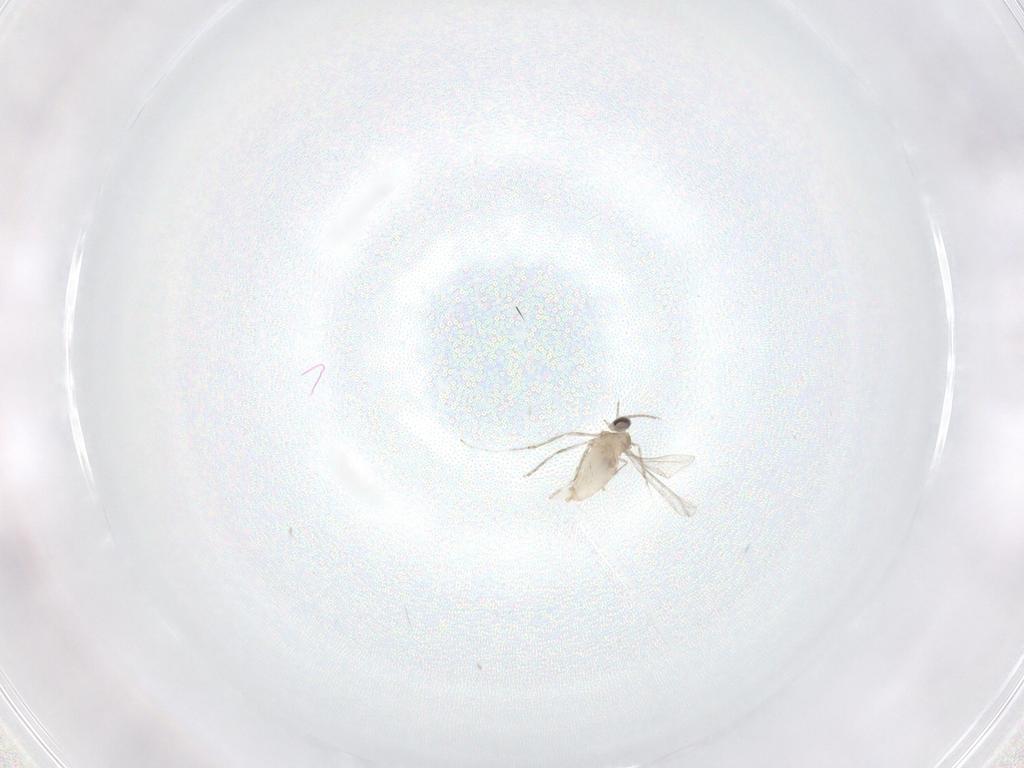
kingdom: Animalia
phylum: Arthropoda
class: Insecta
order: Diptera
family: Cecidomyiidae
